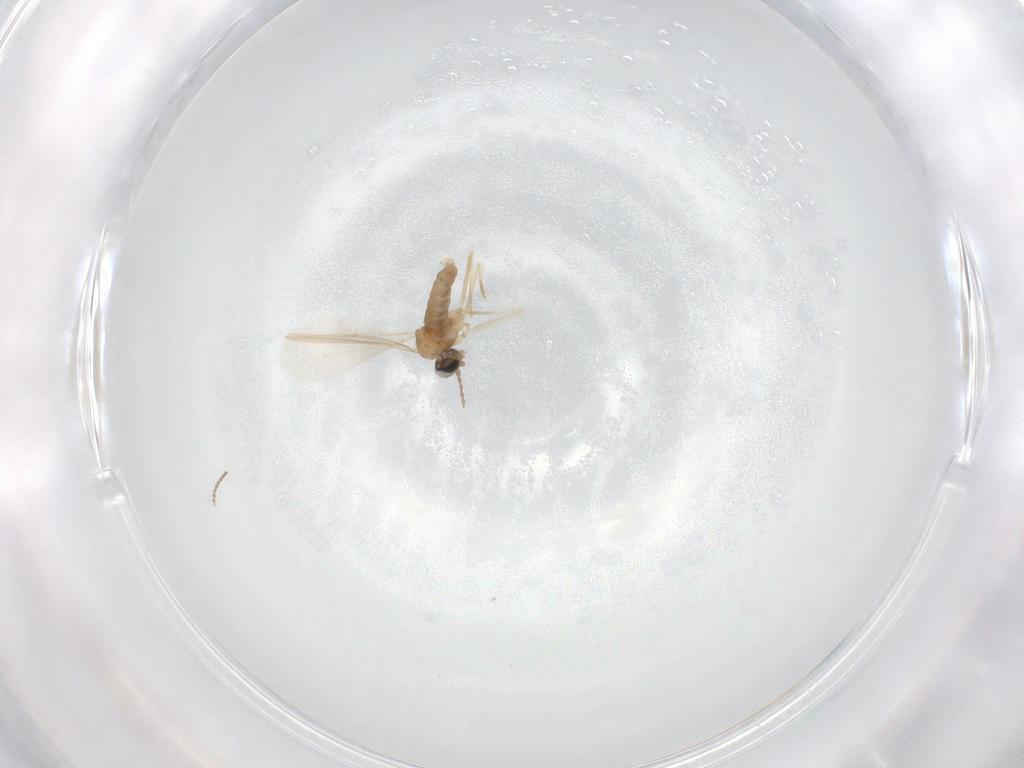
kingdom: Animalia
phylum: Arthropoda
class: Insecta
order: Diptera
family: Cecidomyiidae
